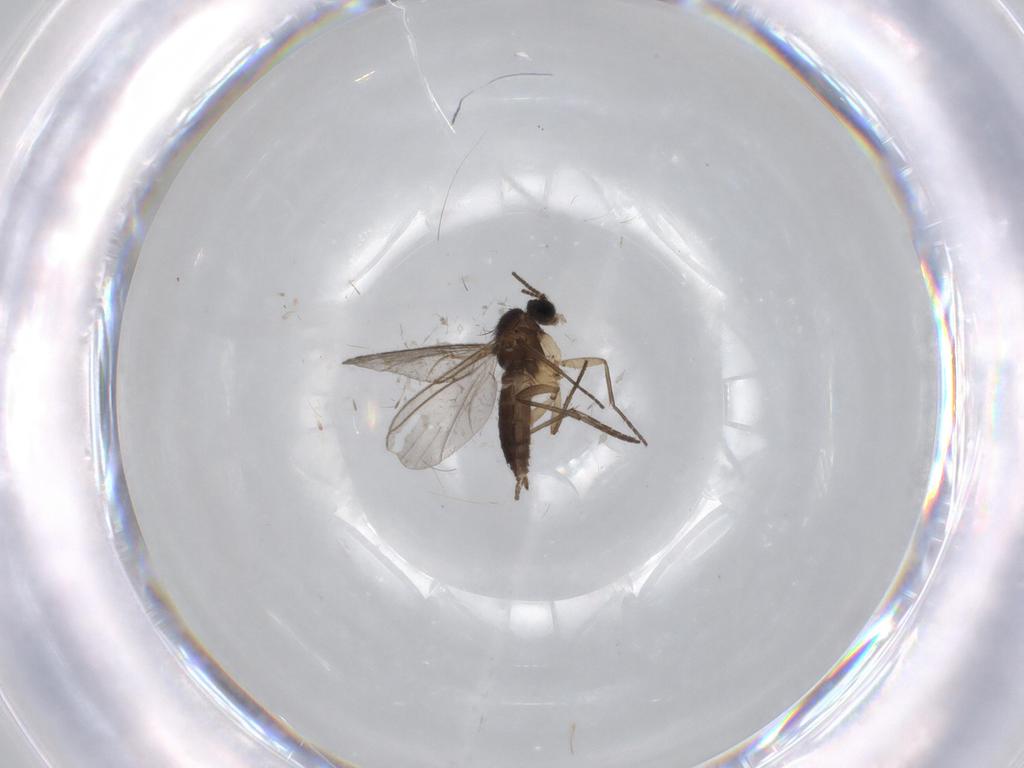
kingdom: Animalia
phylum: Arthropoda
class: Insecta
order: Diptera
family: Sciaridae
